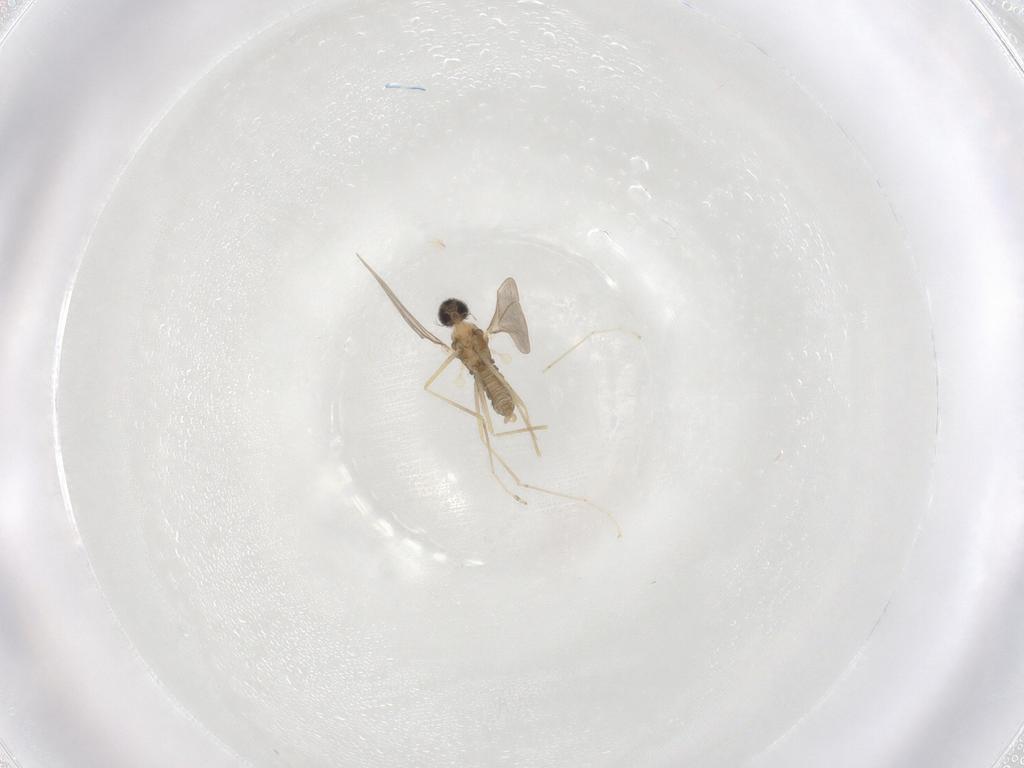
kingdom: Animalia
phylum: Arthropoda
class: Insecta
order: Diptera
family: Cecidomyiidae
